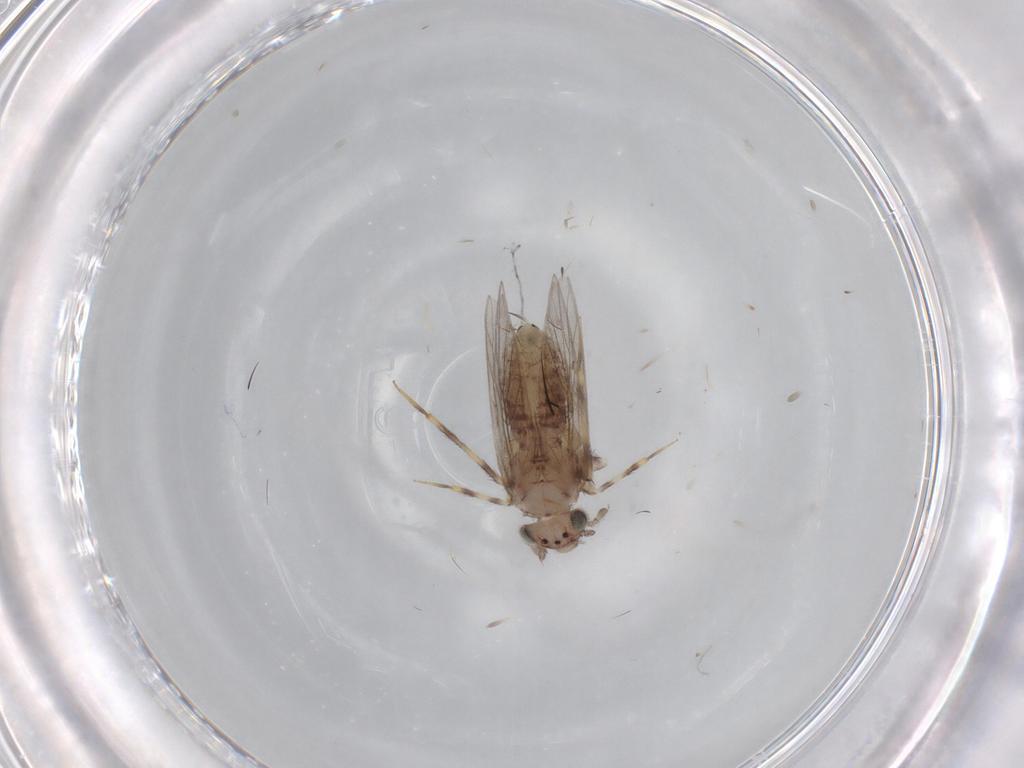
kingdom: Animalia
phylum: Arthropoda
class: Insecta
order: Psocodea
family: Lepidopsocidae
